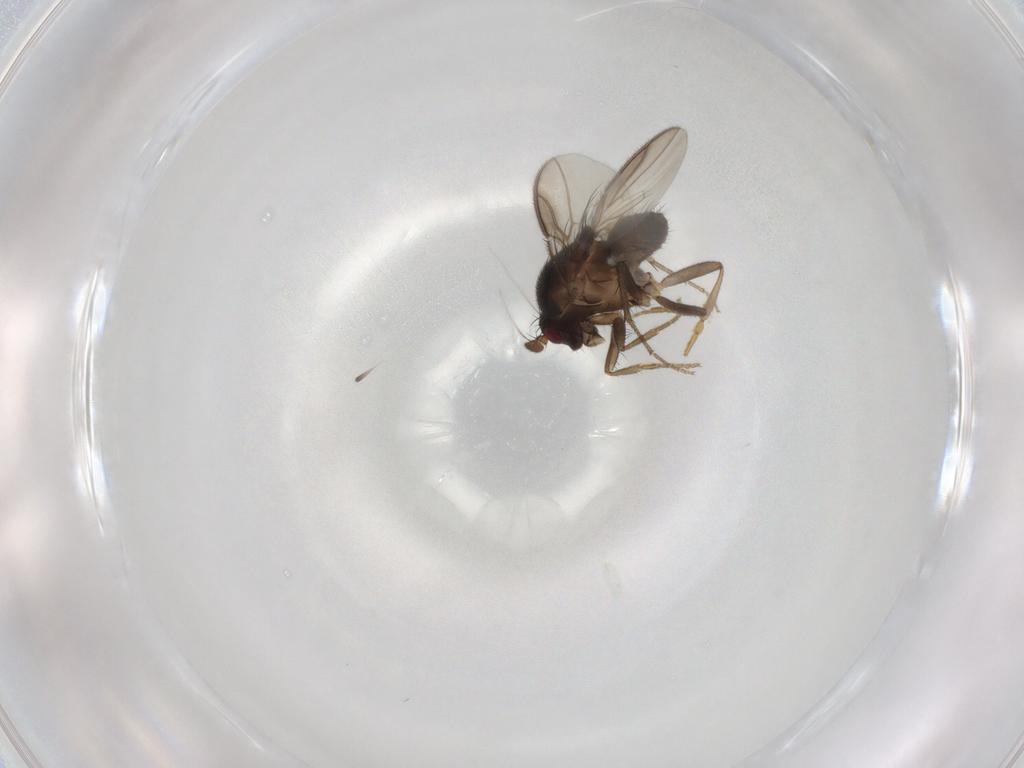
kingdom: Animalia
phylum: Arthropoda
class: Insecta
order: Diptera
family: Sphaeroceridae
